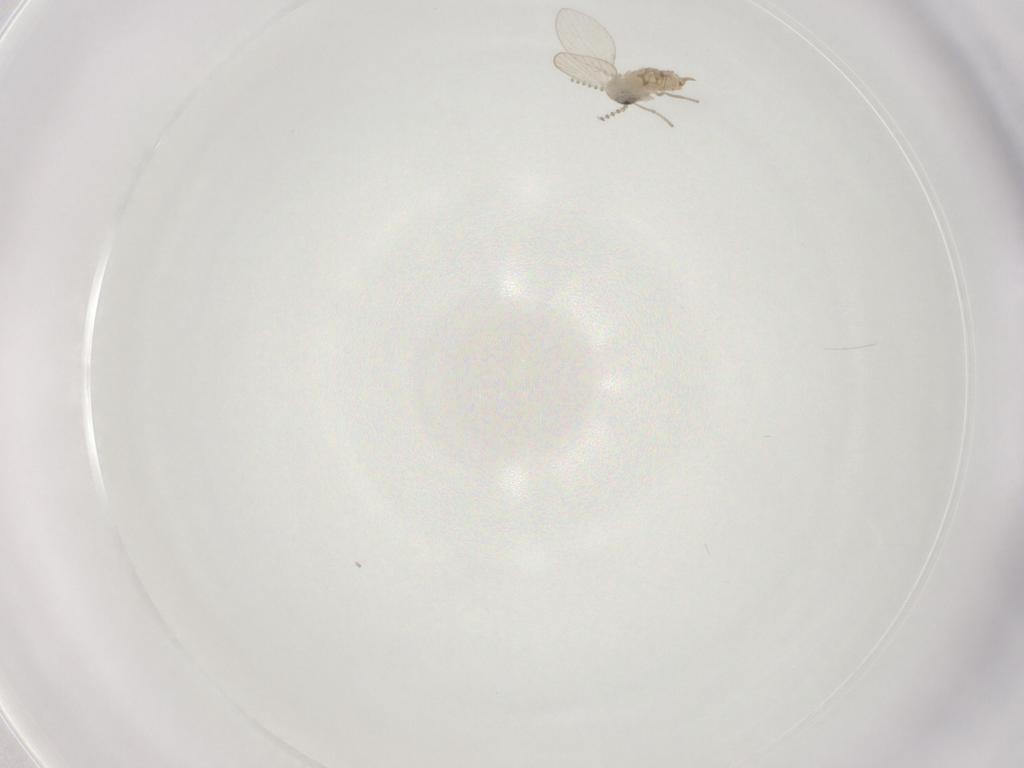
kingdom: Animalia
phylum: Arthropoda
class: Insecta
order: Diptera
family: Psychodidae
